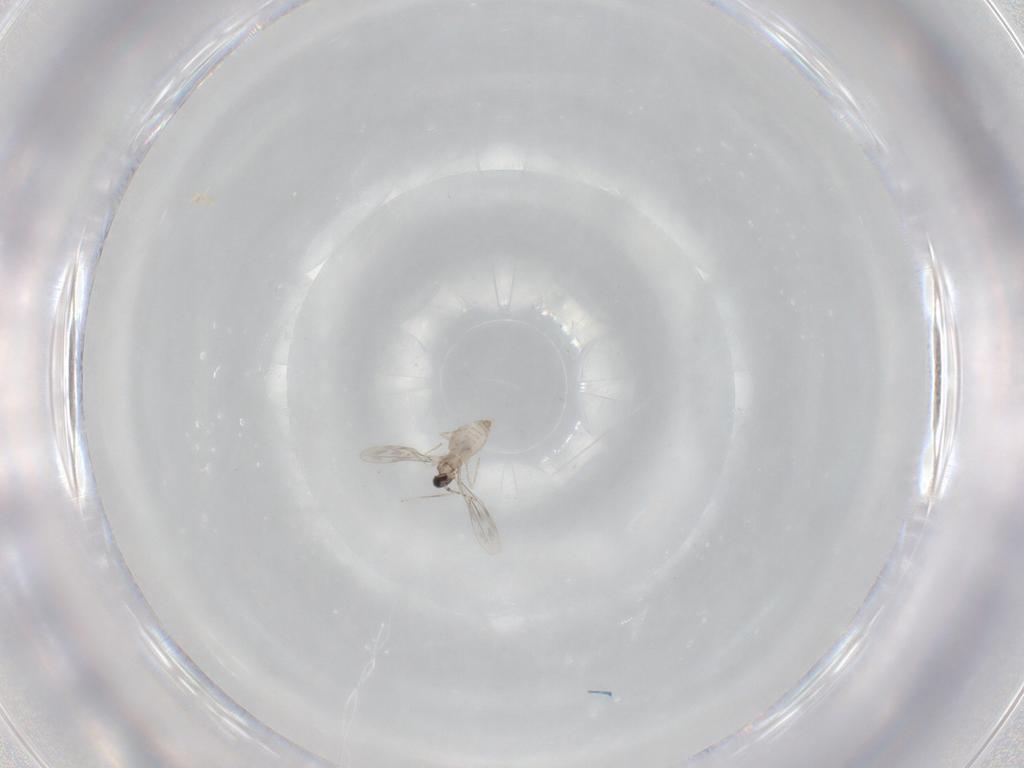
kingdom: Animalia
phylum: Arthropoda
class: Insecta
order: Diptera
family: Cecidomyiidae
